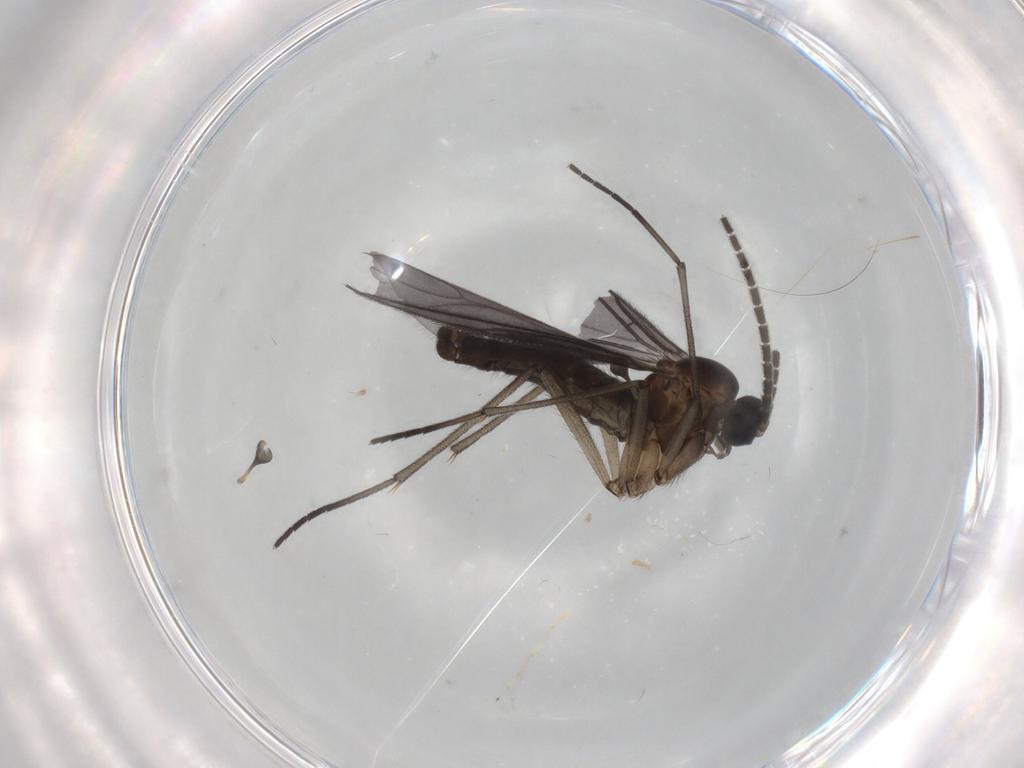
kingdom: Animalia
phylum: Arthropoda
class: Insecta
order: Diptera
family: Sciaridae
